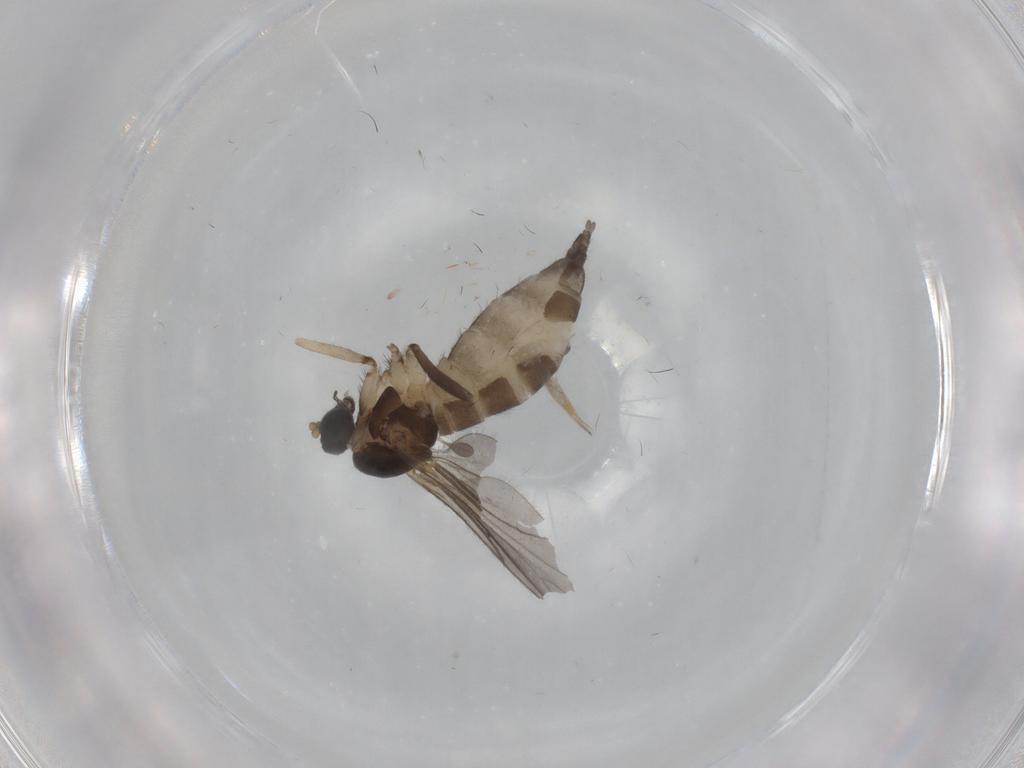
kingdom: Animalia
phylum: Arthropoda
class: Insecta
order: Diptera
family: Sciaridae
